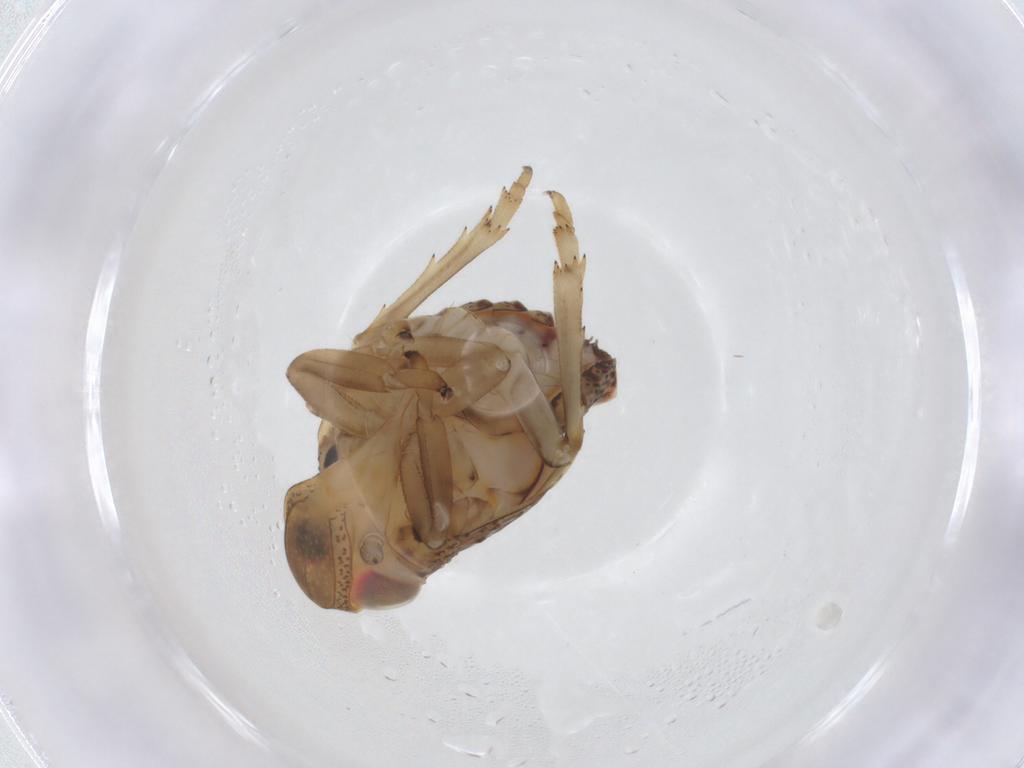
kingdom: Animalia
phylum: Arthropoda
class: Insecta
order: Hemiptera
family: Issidae
